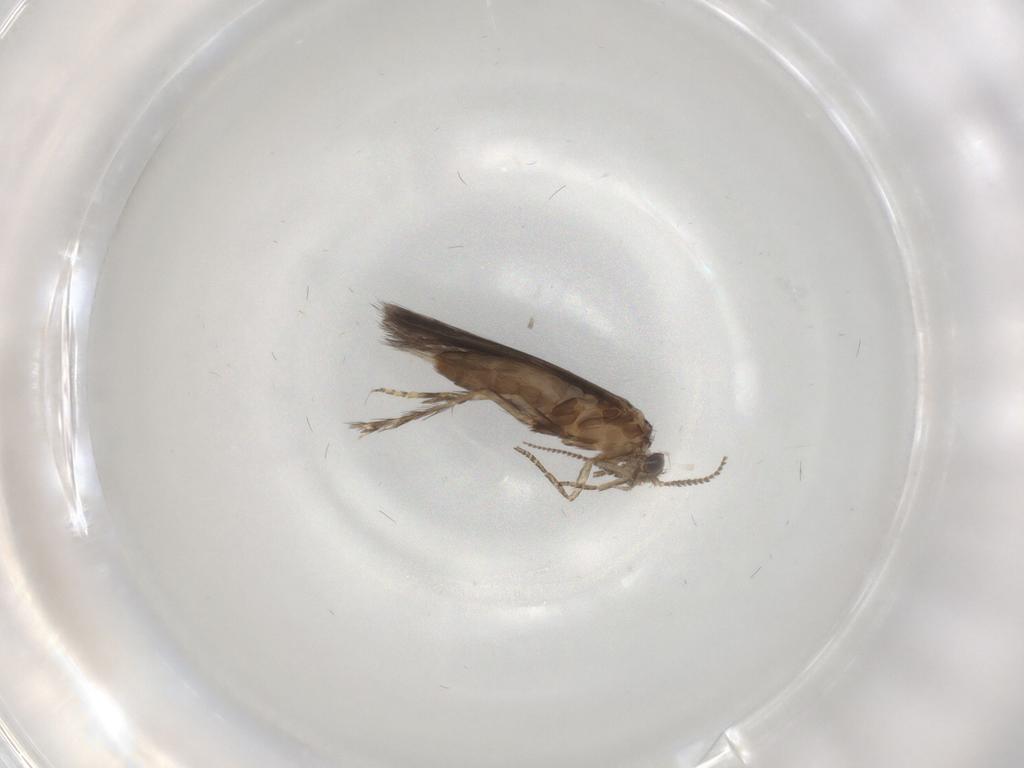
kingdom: Animalia
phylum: Arthropoda
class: Insecta
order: Trichoptera
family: Hydroptilidae
